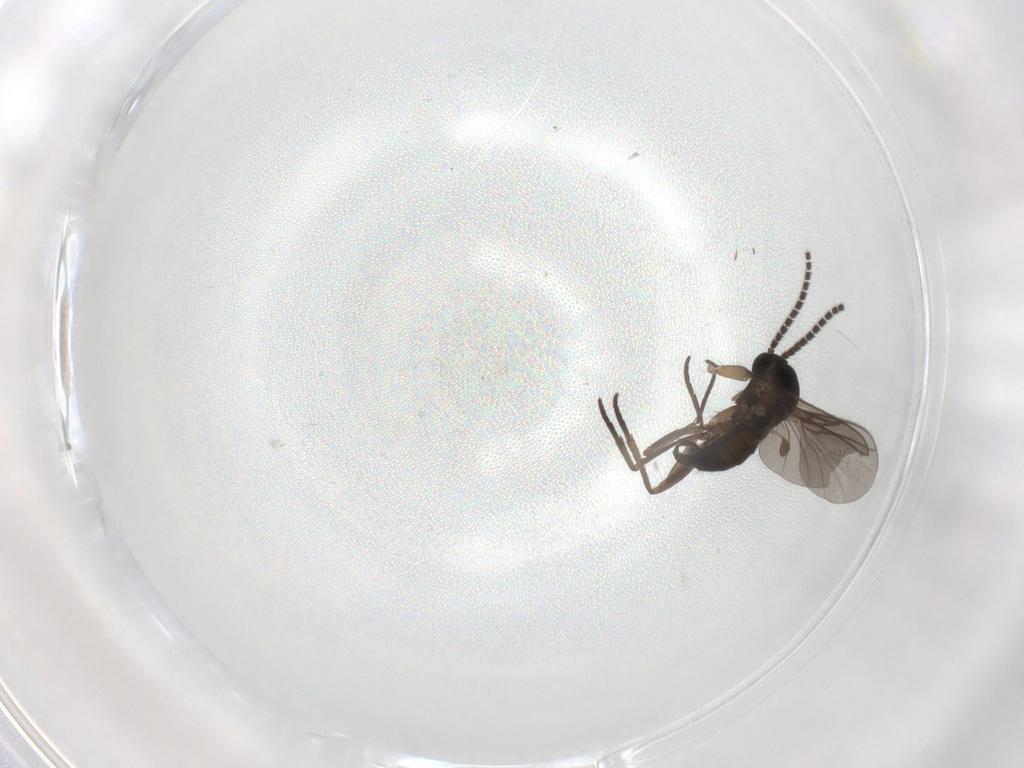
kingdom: Animalia
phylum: Arthropoda
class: Insecta
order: Diptera
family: Sciaridae
